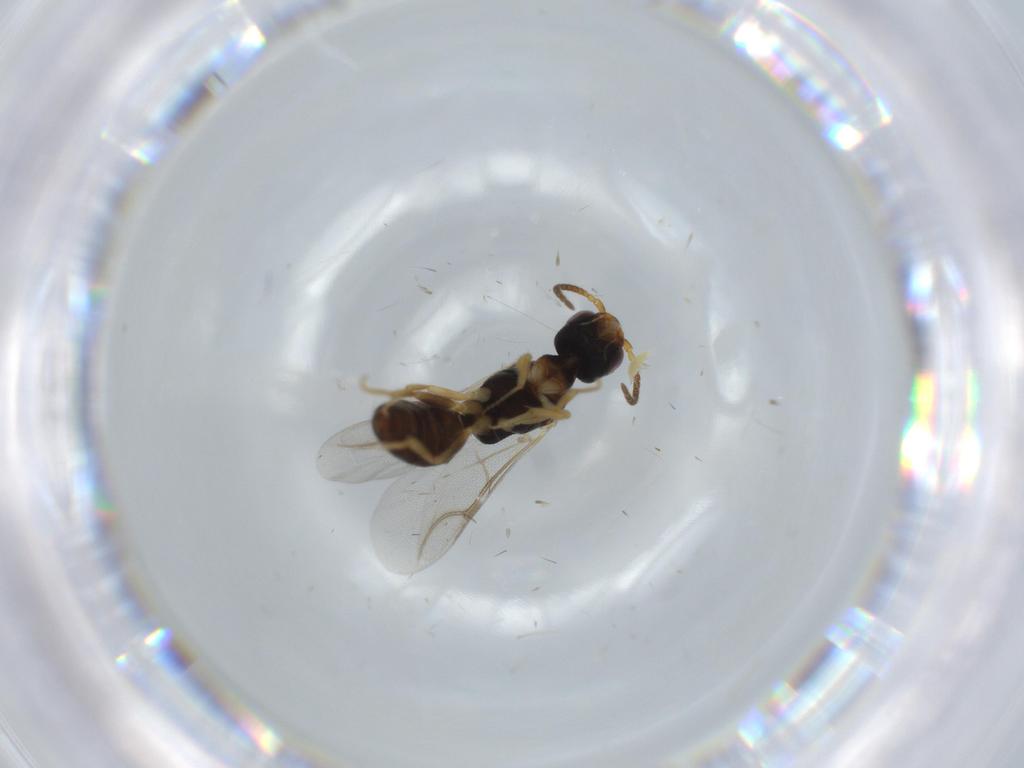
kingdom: Animalia
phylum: Arthropoda
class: Insecta
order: Hymenoptera
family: Bethylidae
